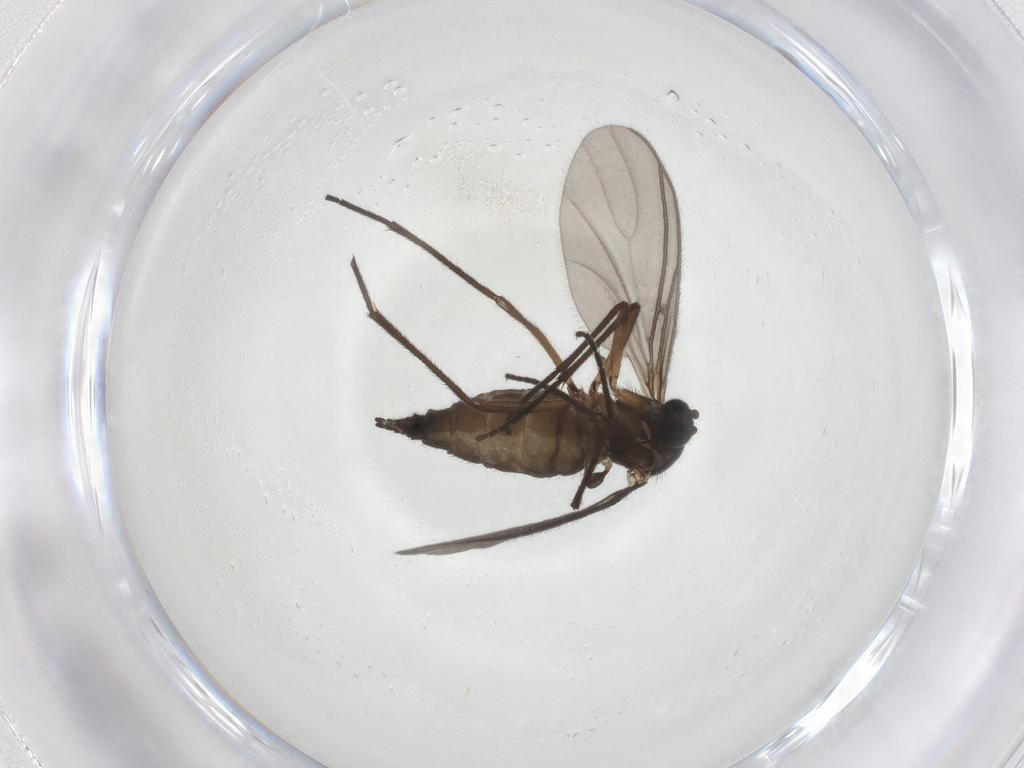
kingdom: Animalia
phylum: Arthropoda
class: Insecta
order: Diptera
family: Sciaridae
